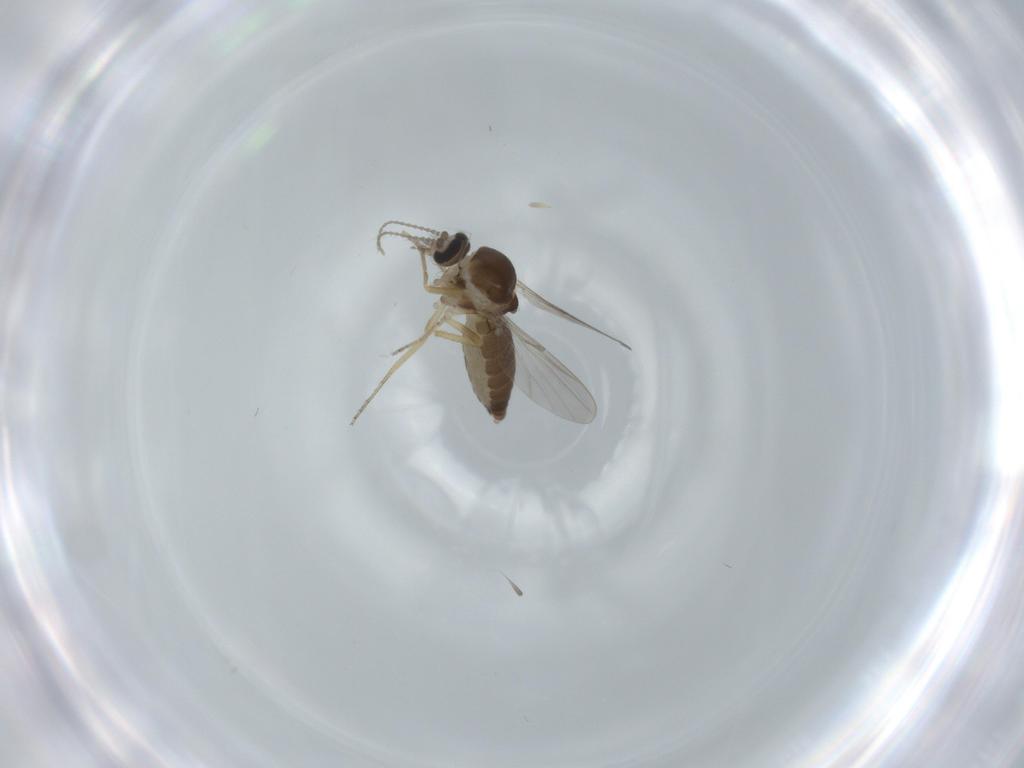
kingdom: Animalia
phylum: Arthropoda
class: Insecta
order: Diptera
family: Ceratopogonidae
